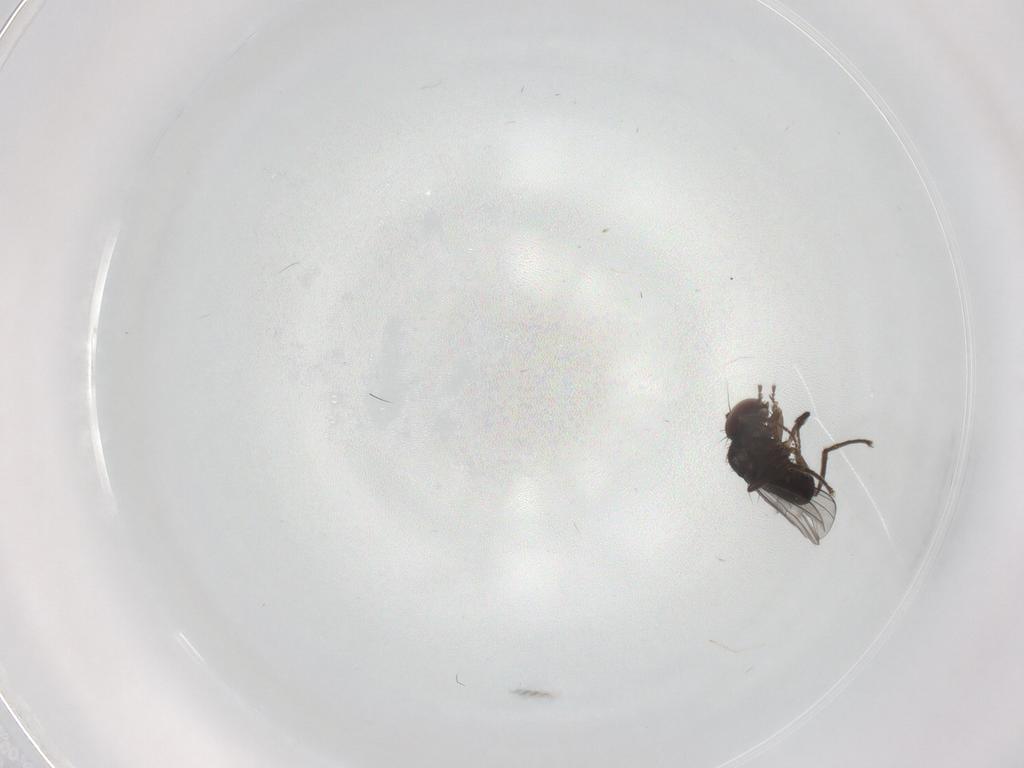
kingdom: Animalia
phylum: Arthropoda
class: Insecta
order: Diptera
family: Dolichopodidae
